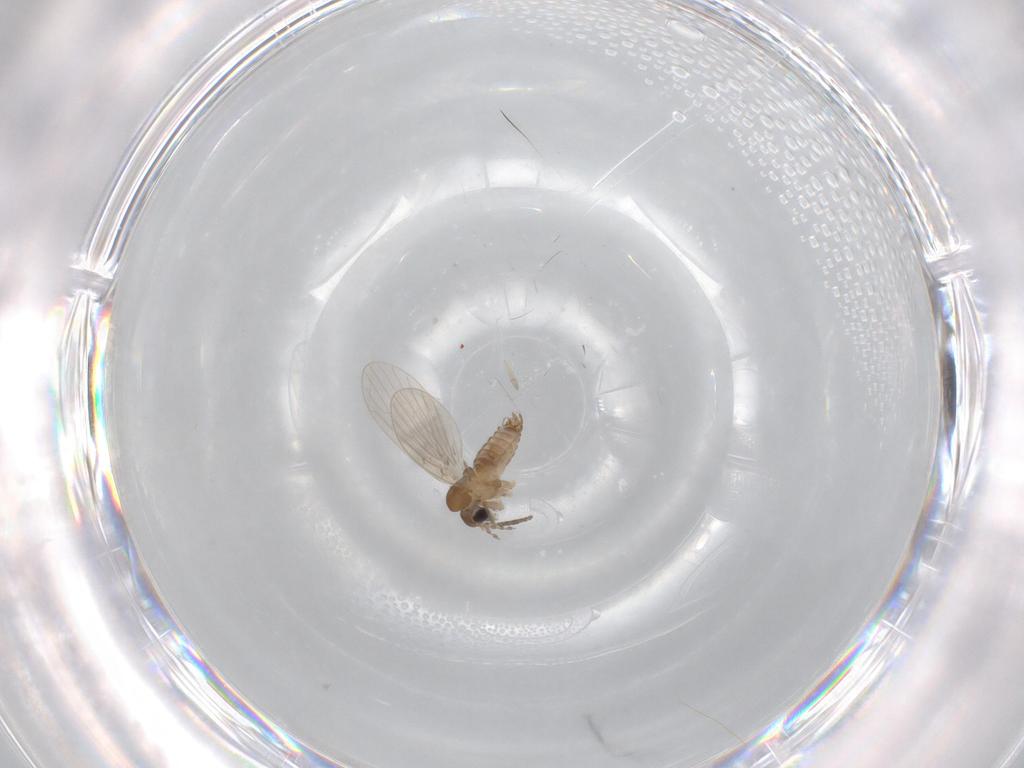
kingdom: Animalia
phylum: Arthropoda
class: Insecta
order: Diptera
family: Psychodidae
